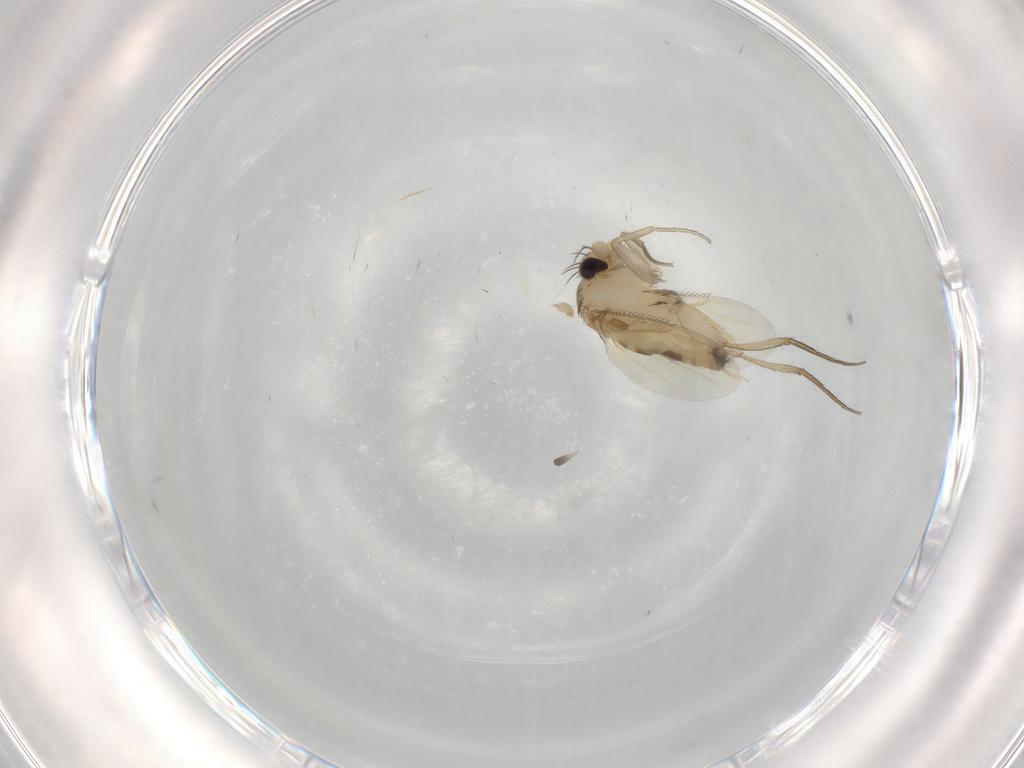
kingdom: Animalia
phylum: Arthropoda
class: Insecta
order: Diptera
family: Phoridae
